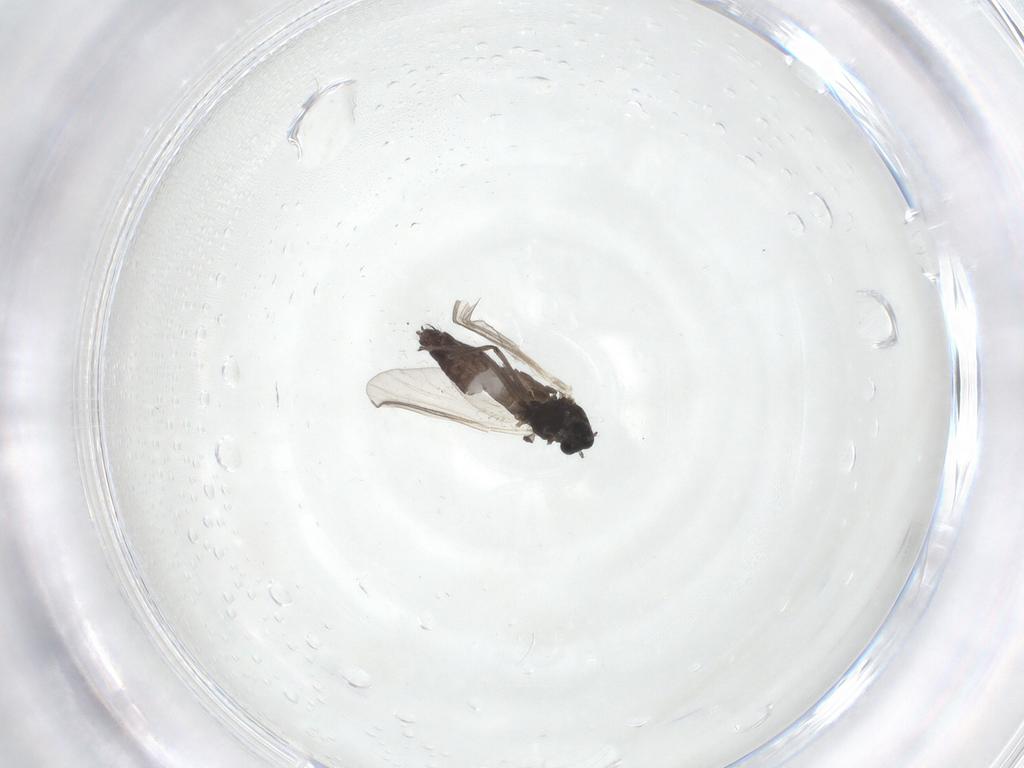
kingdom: Animalia
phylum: Arthropoda
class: Insecta
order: Diptera
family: Chironomidae
